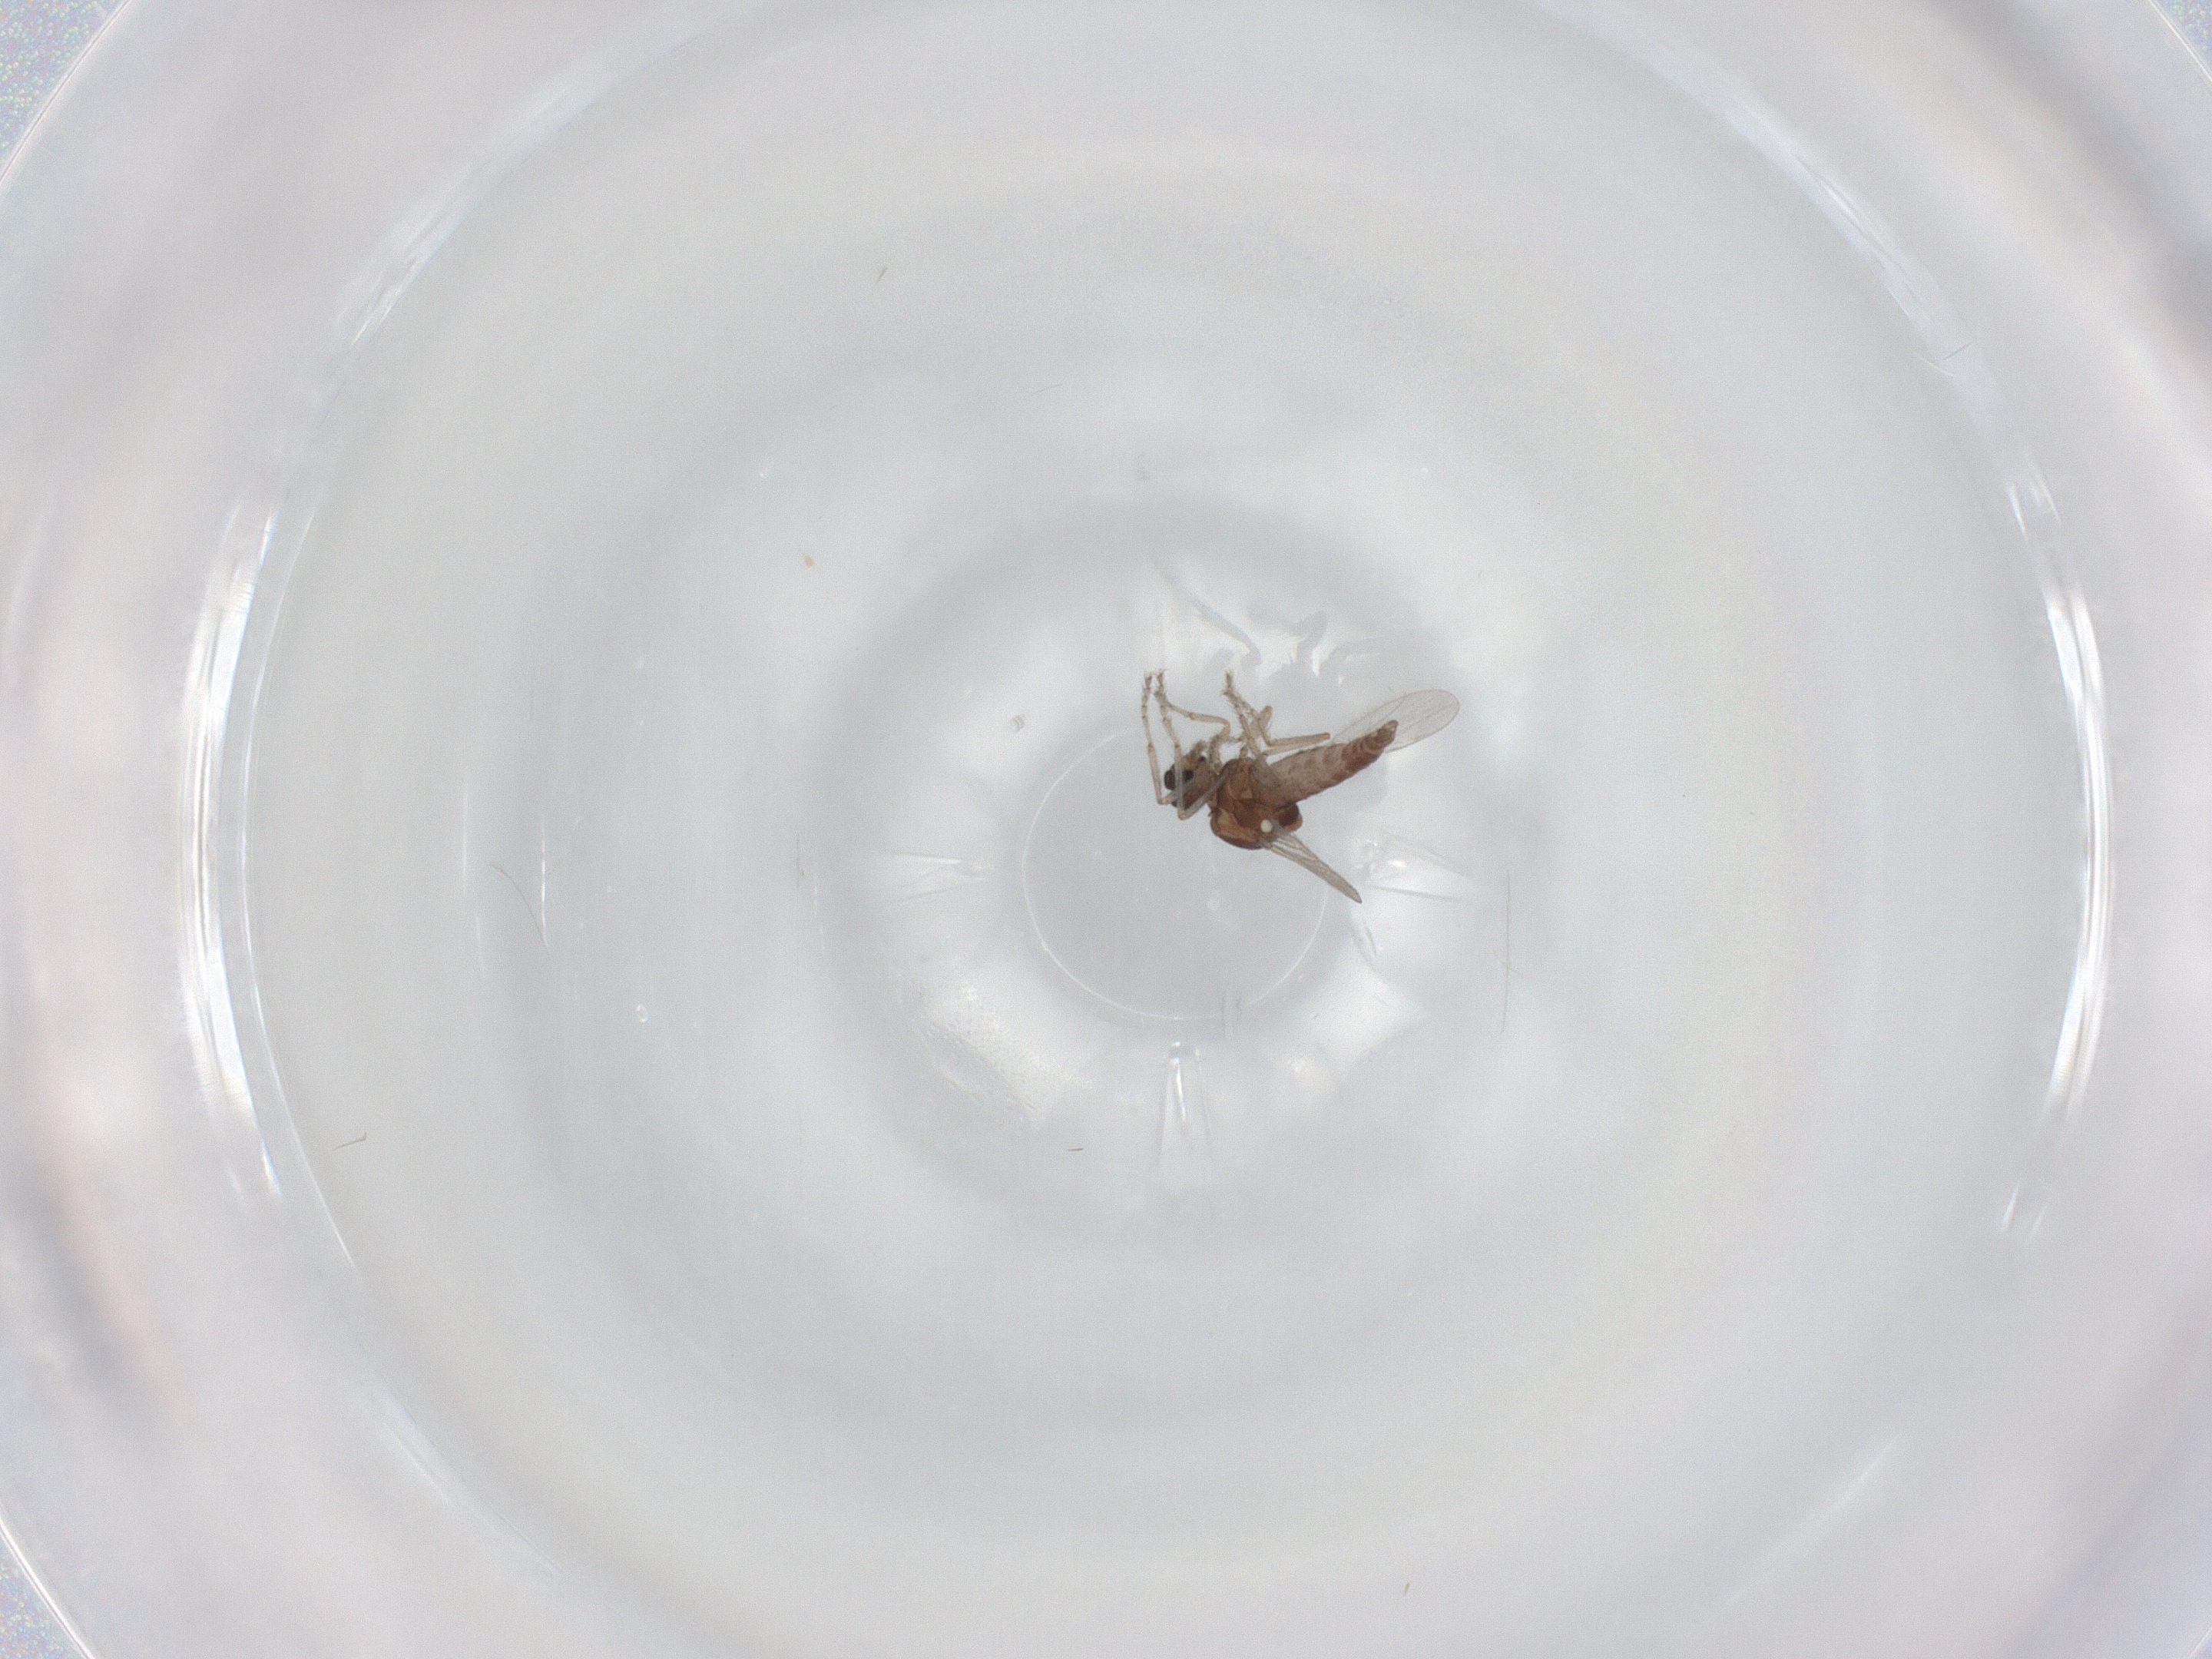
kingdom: Animalia
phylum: Arthropoda
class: Insecta
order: Diptera
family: Ceratopogonidae
